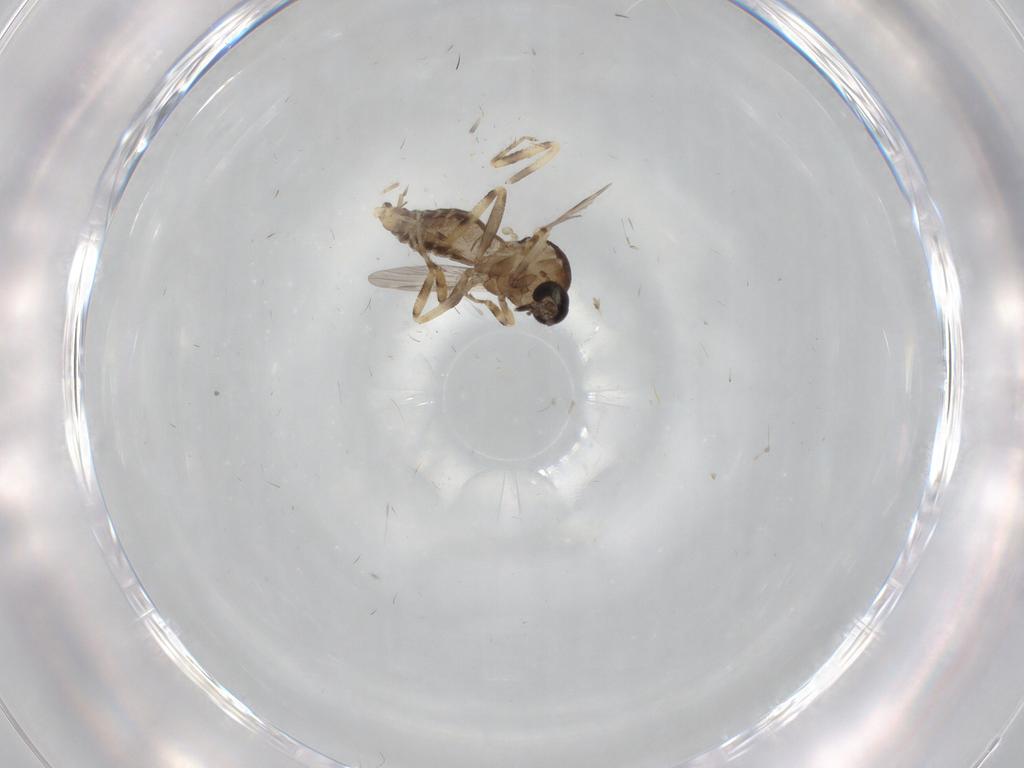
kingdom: Animalia
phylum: Arthropoda
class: Insecta
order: Diptera
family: Ceratopogonidae
